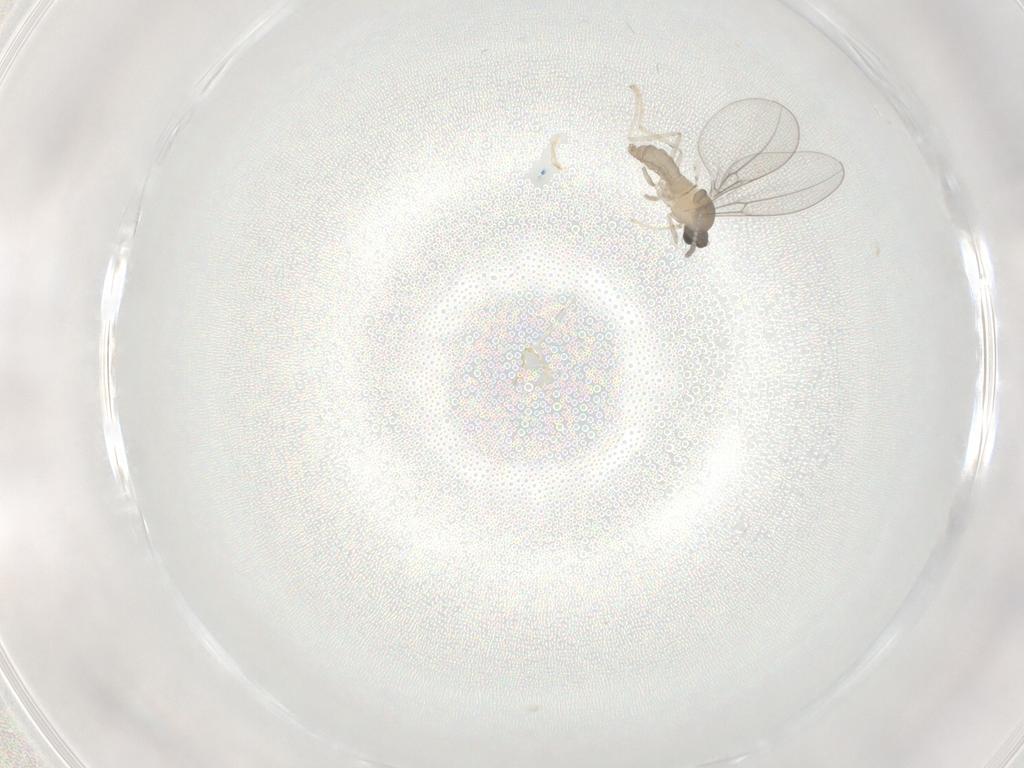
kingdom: Animalia
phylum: Arthropoda
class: Insecta
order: Diptera
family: Cecidomyiidae
